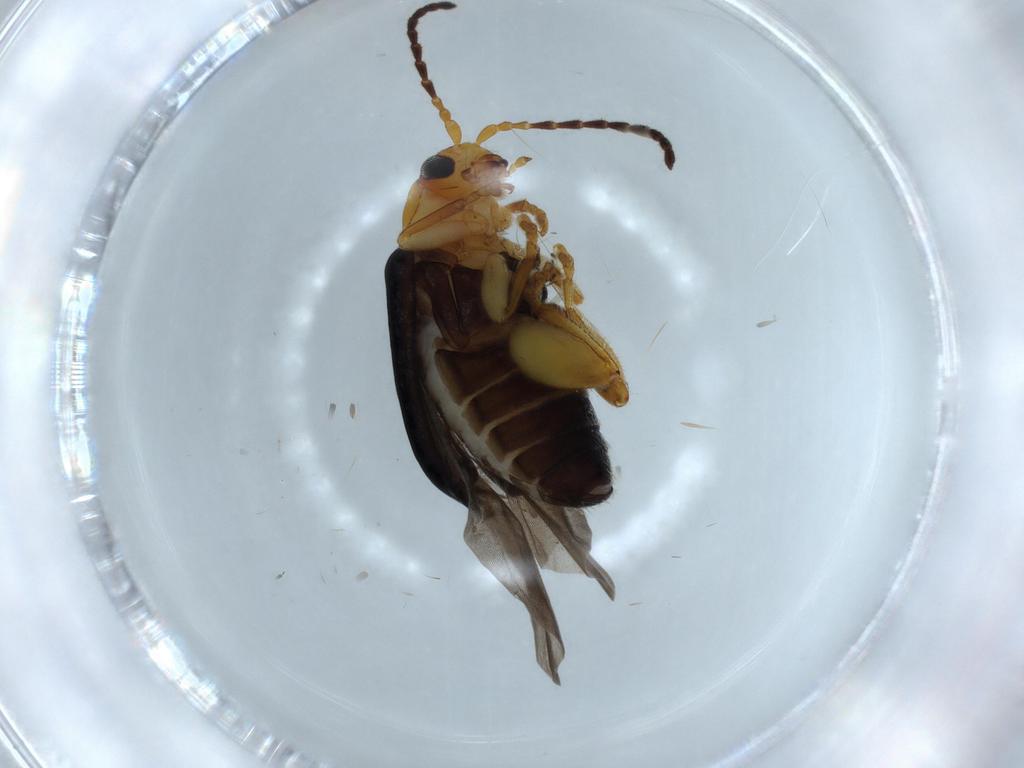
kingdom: Animalia
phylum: Arthropoda
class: Insecta
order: Coleoptera
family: Chrysomelidae
